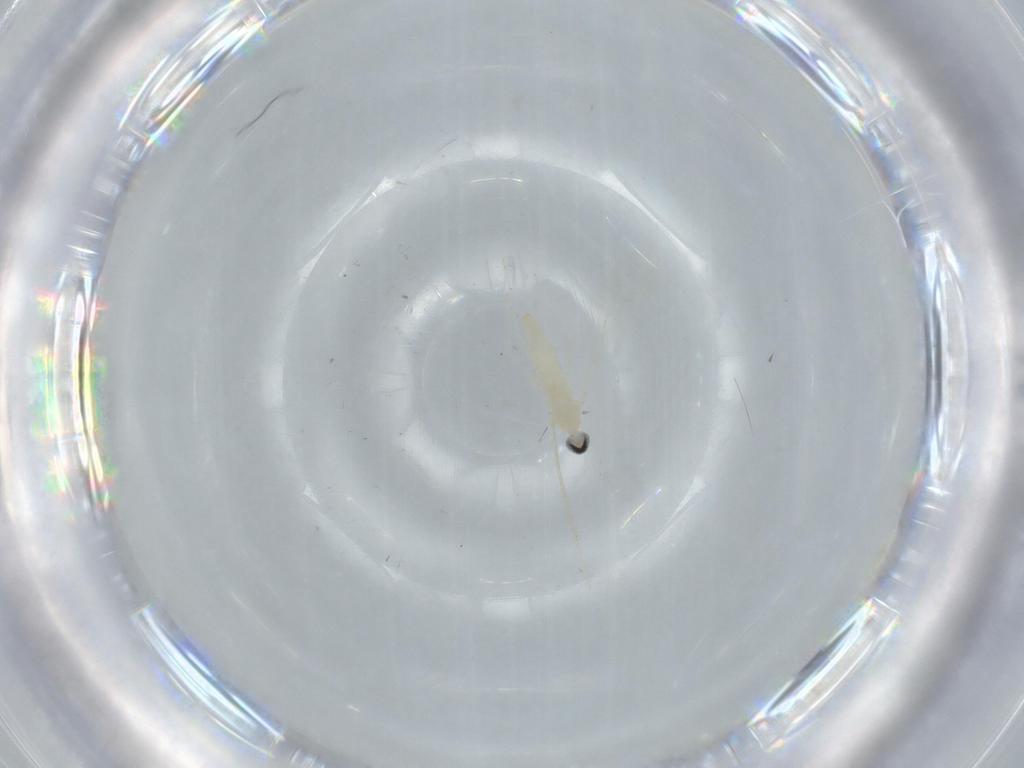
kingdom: Animalia
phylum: Arthropoda
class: Insecta
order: Diptera
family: Cecidomyiidae
